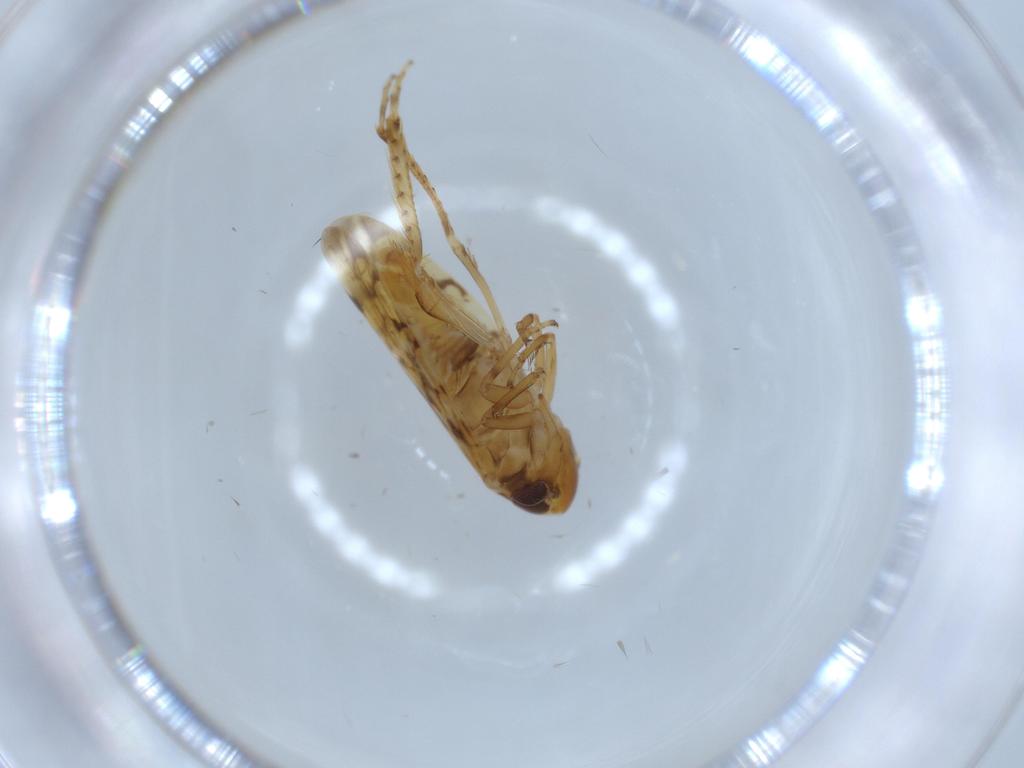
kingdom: Animalia
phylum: Arthropoda
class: Insecta
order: Hemiptera
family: Cicadellidae
